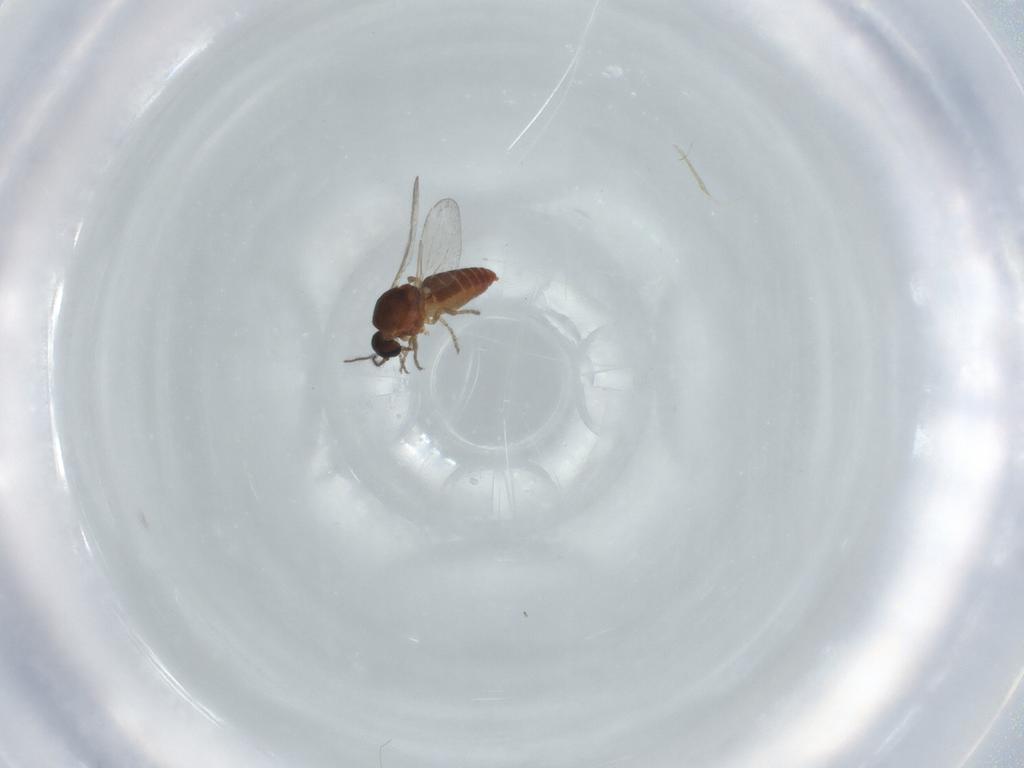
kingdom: Animalia
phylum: Arthropoda
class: Insecta
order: Diptera
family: Ceratopogonidae
